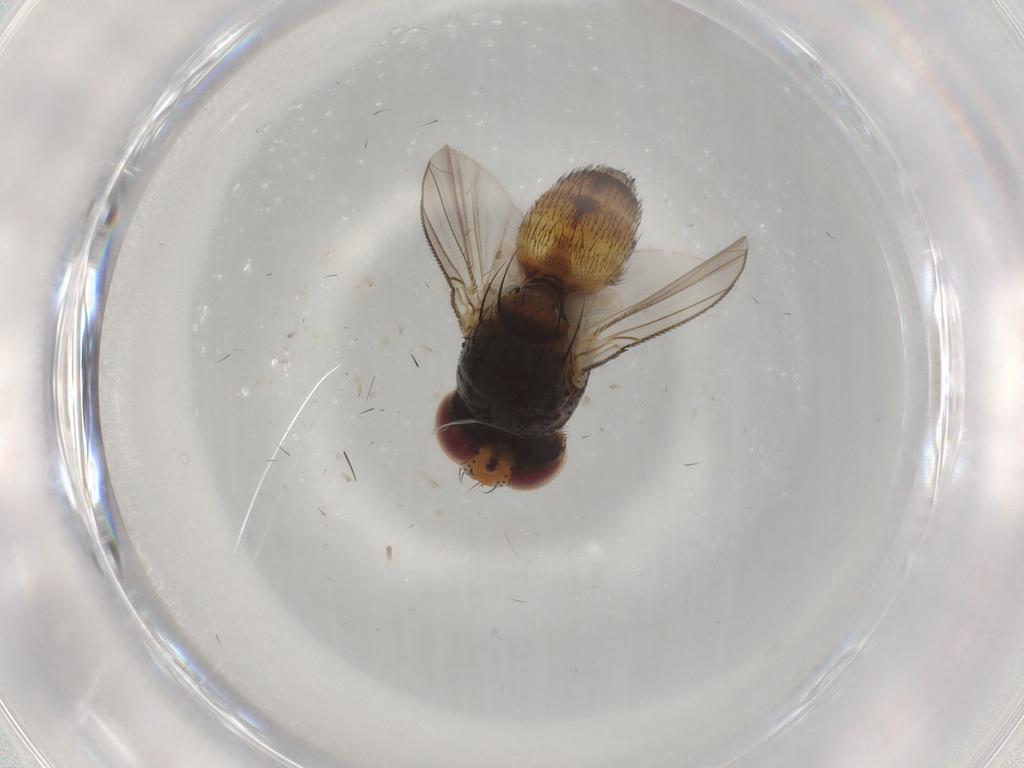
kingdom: Animalia
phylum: Arthropoda
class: Insecta
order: Diptera
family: Tachinidae
